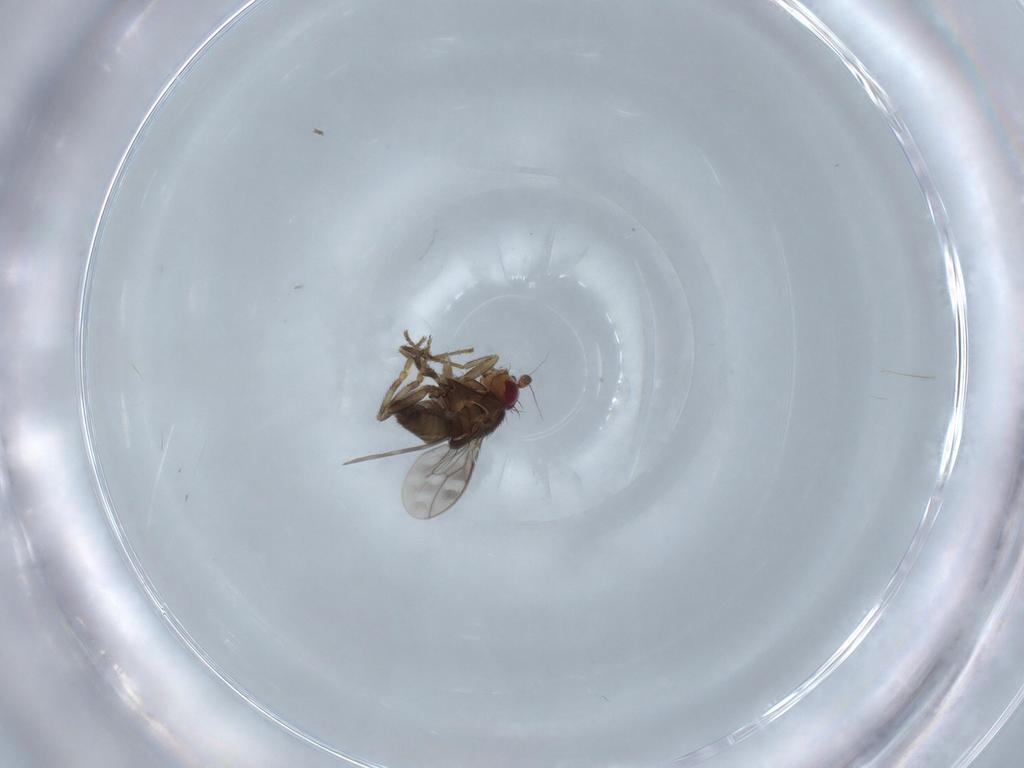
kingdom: Animalia
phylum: Arthropoda
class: Insecta
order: Diptera
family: Sphaeroceridae
